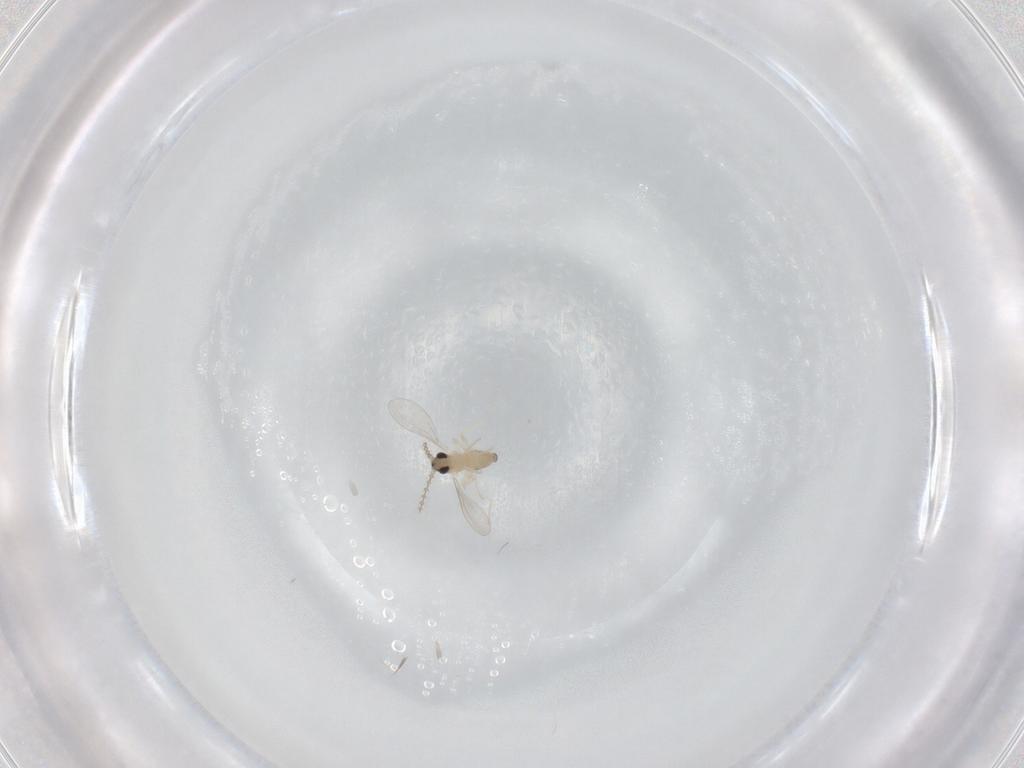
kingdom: Animalia
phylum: Arthropoda
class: Insecta
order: Diptera
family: Cecidomyiidae
